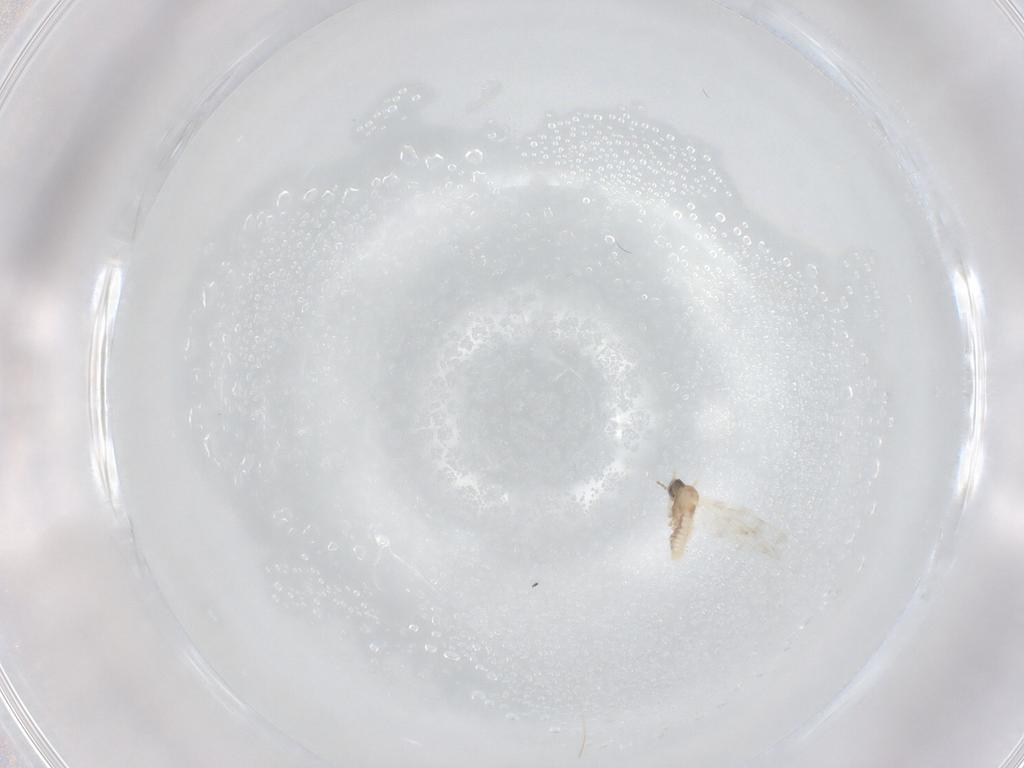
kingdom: Animalia
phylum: Arthropoda
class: Insecta
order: Diptera
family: Cecidomyiidae
